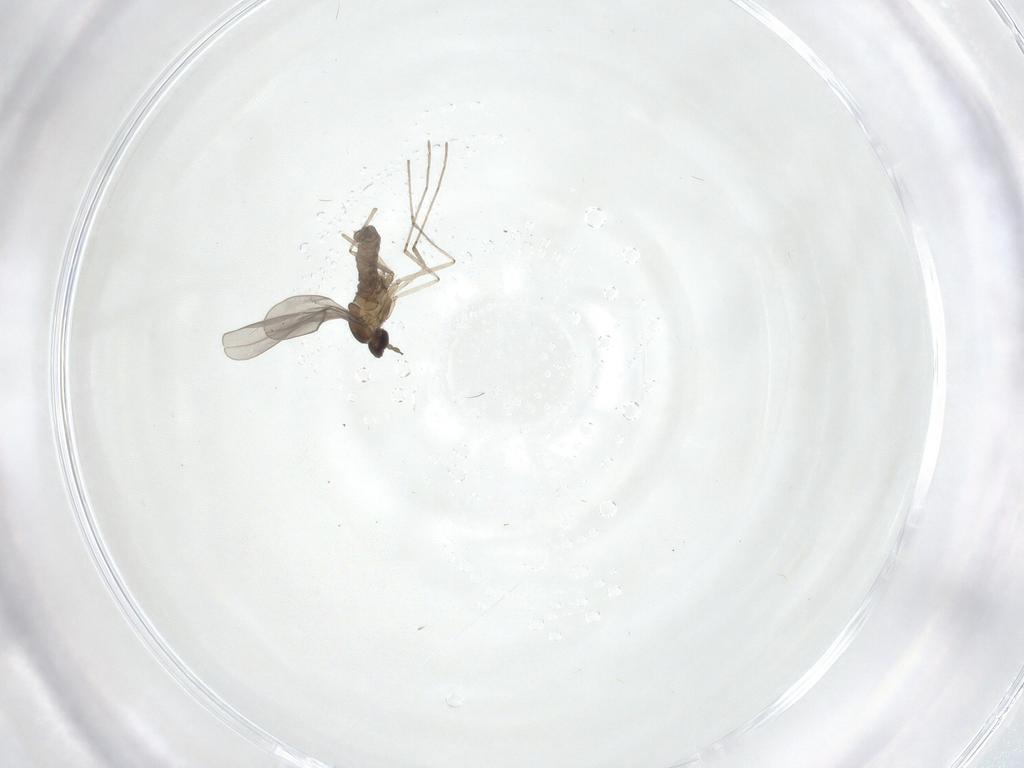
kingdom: Animalia
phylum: Arthropoda
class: Insecta
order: Diptera
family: Cecidomyiidae
